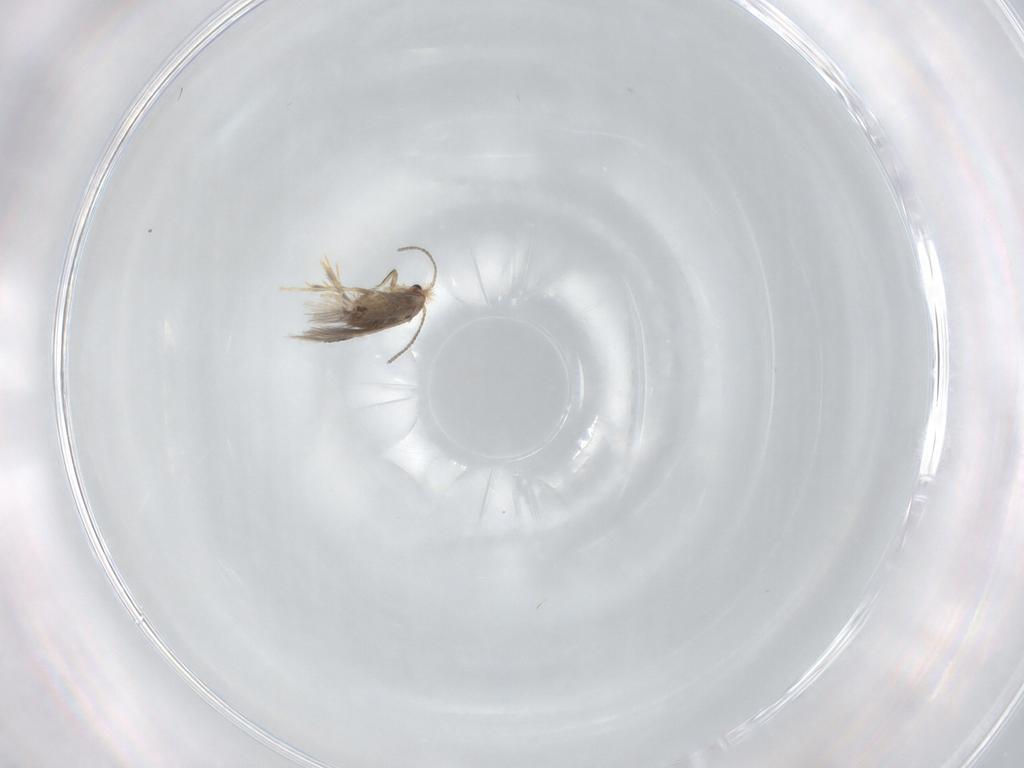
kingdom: Animalia
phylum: Arthropoda
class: Insecta
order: Lepidoptera
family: Nepticulidae
